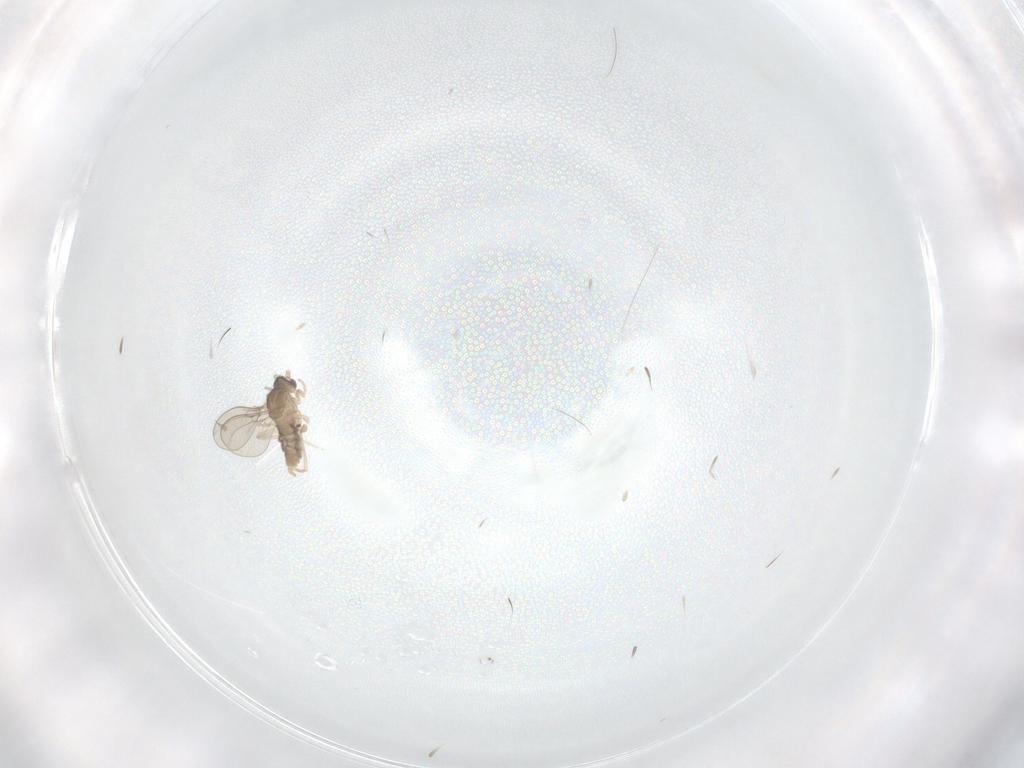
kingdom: Animalia
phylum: Arthropoda
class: Insecta
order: Diptera
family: Cecidomyiidae
